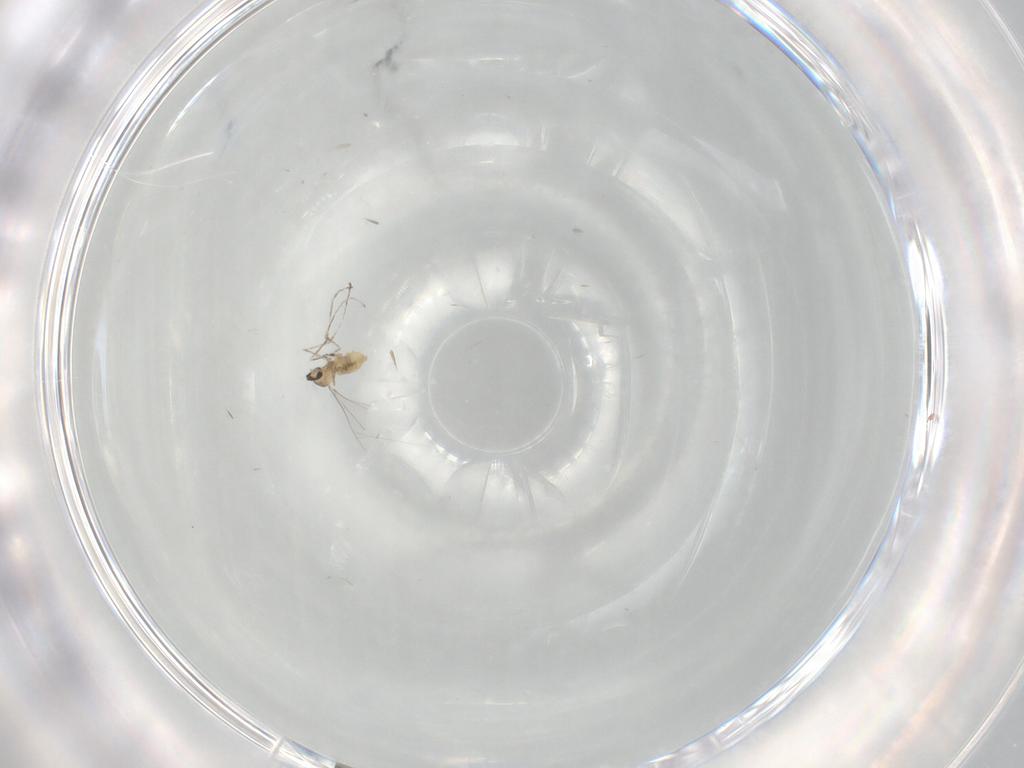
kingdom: Animalia
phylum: Arthropoda
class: Insecta
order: Diptera
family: Cecidomyiidae
